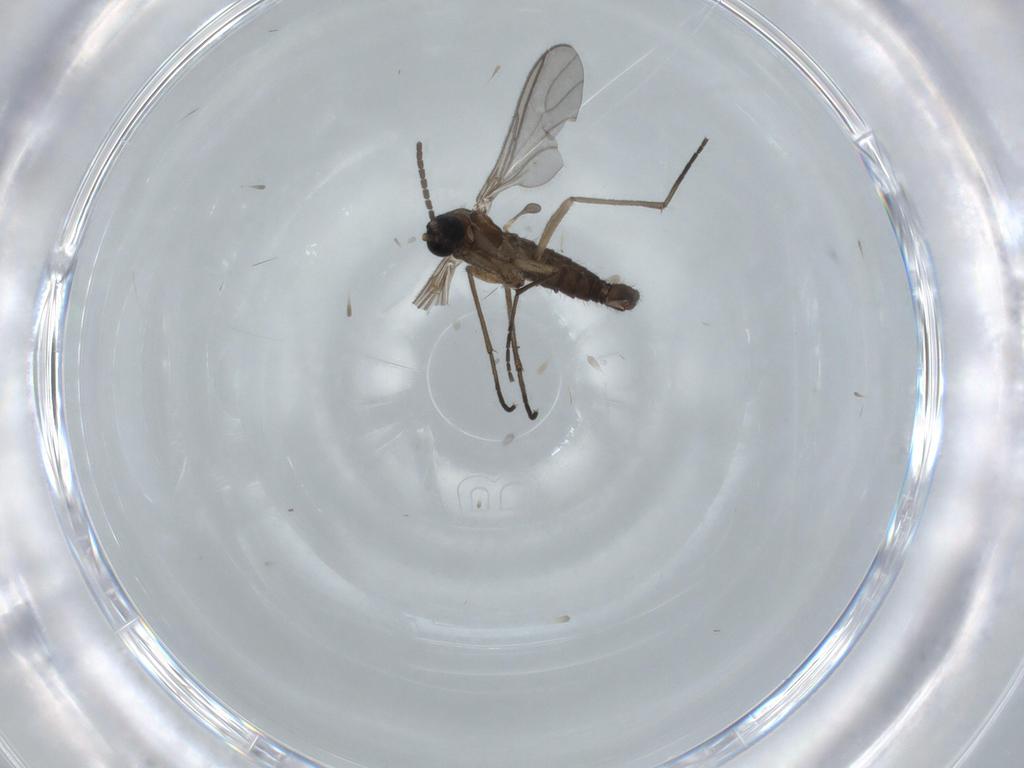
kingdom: Animalia
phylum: Arthropoda
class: Insecta
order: Diptera
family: Sciaridae
